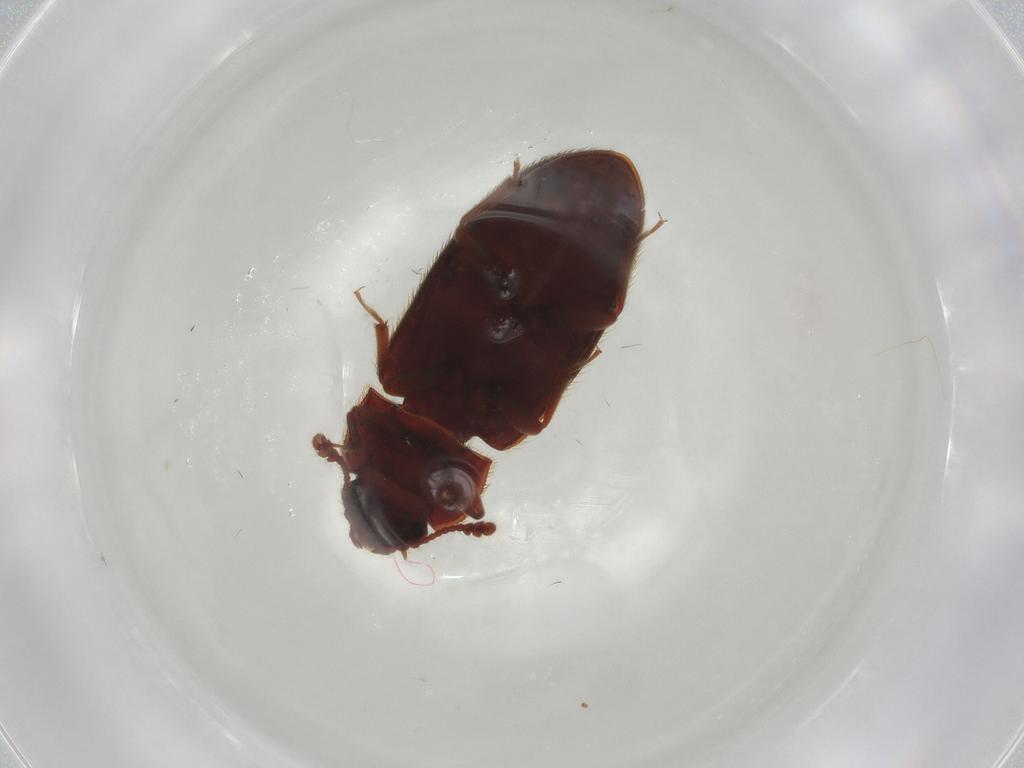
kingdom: Animalia
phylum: Arthropoda
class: Insecta
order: Coleoptera
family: Biphyllidae
